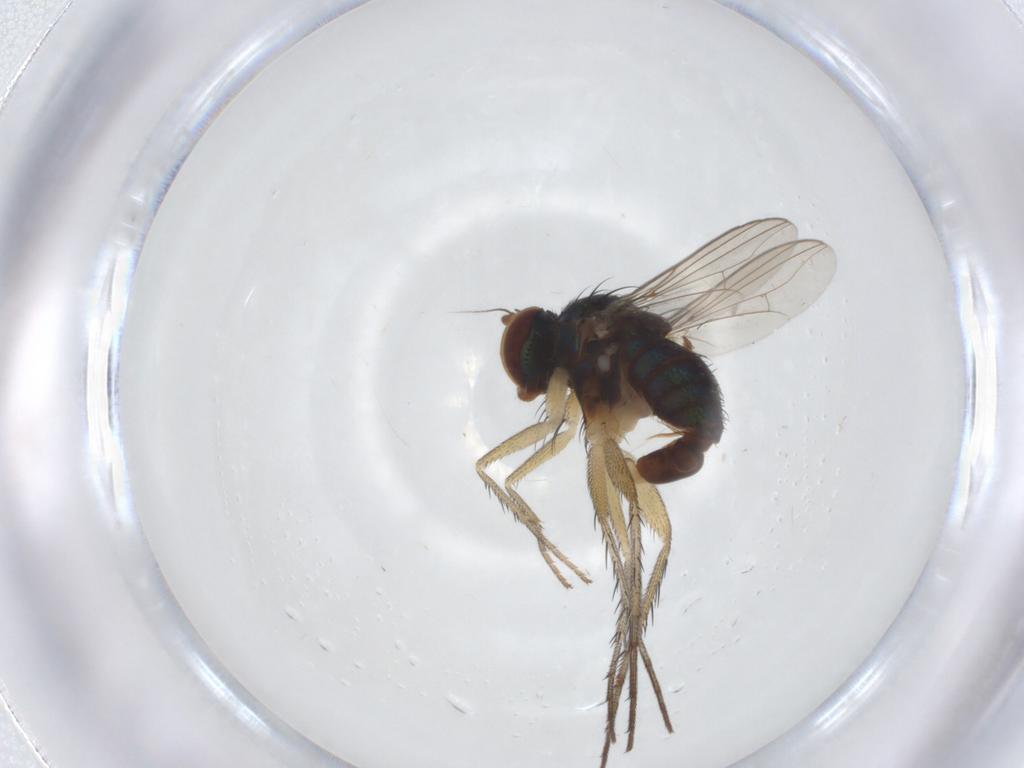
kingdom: Animalia
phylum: Arthropoda
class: Insecta
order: Diptera
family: Dolichopodidae
